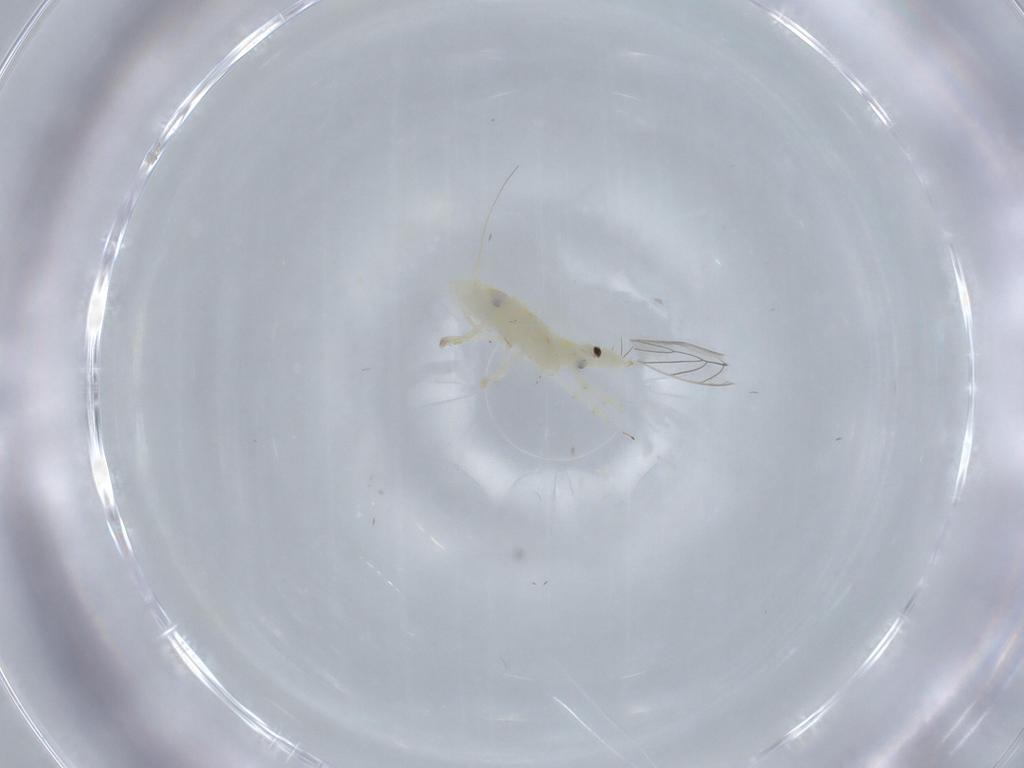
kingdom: Animalia
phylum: Arthropoda
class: Insecta
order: Hemiptera
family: Cicadellidae
